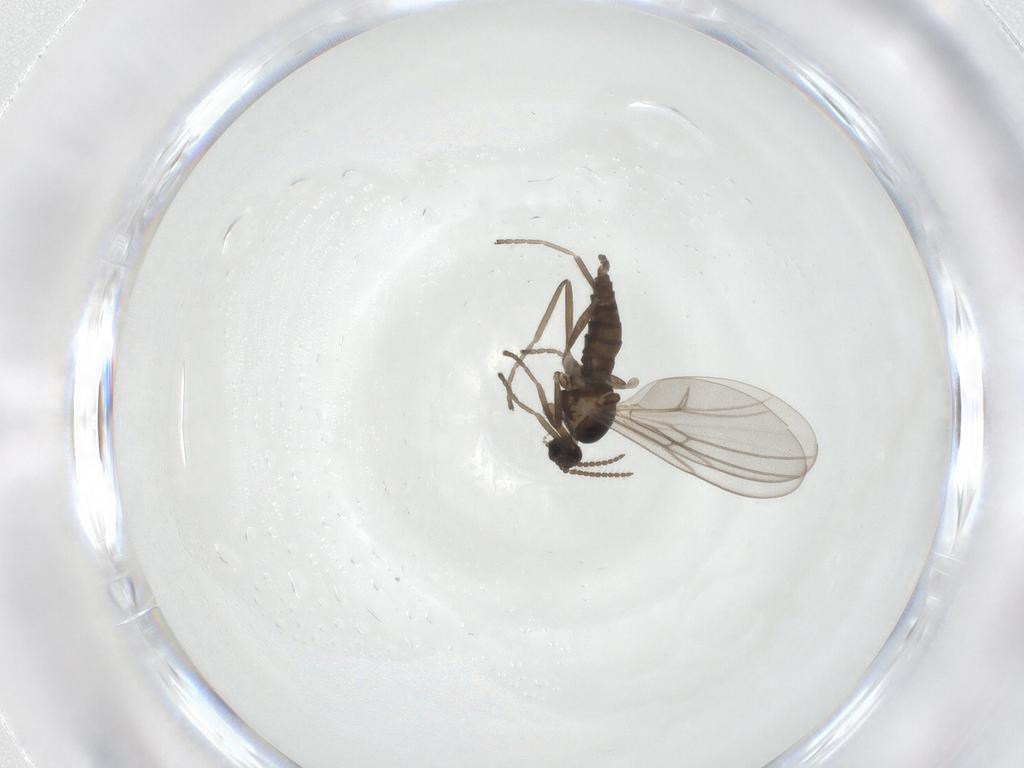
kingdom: Animalia
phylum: Arthropoda
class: Insecta
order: Diptera
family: Cecidomyiidae
